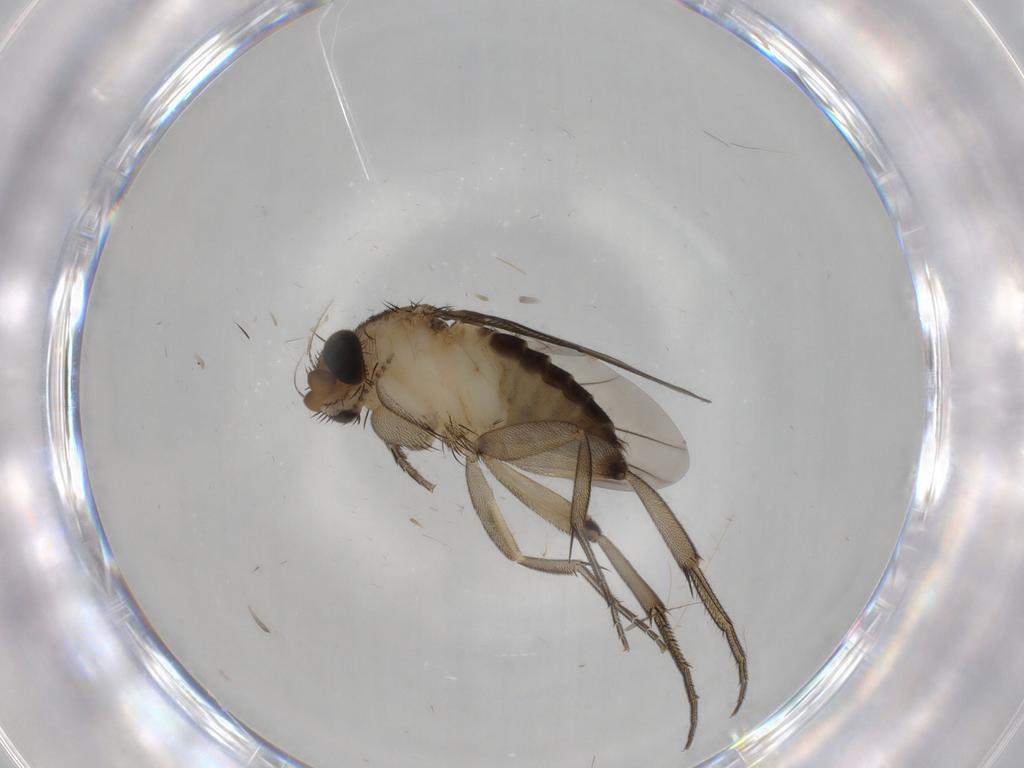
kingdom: Animalia
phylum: Arthropoda
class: Insecta
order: Diptera
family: Phoridae
